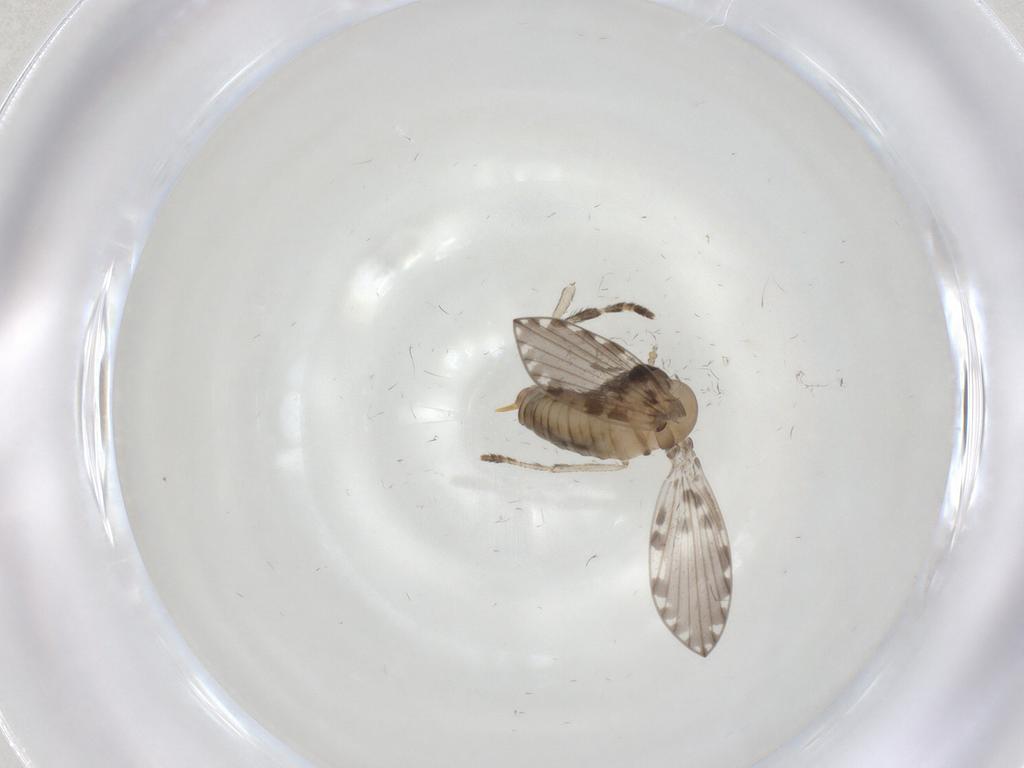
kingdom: Animalia
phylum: Arthropoda
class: Insecta
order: Diptera
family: Psychodidae
